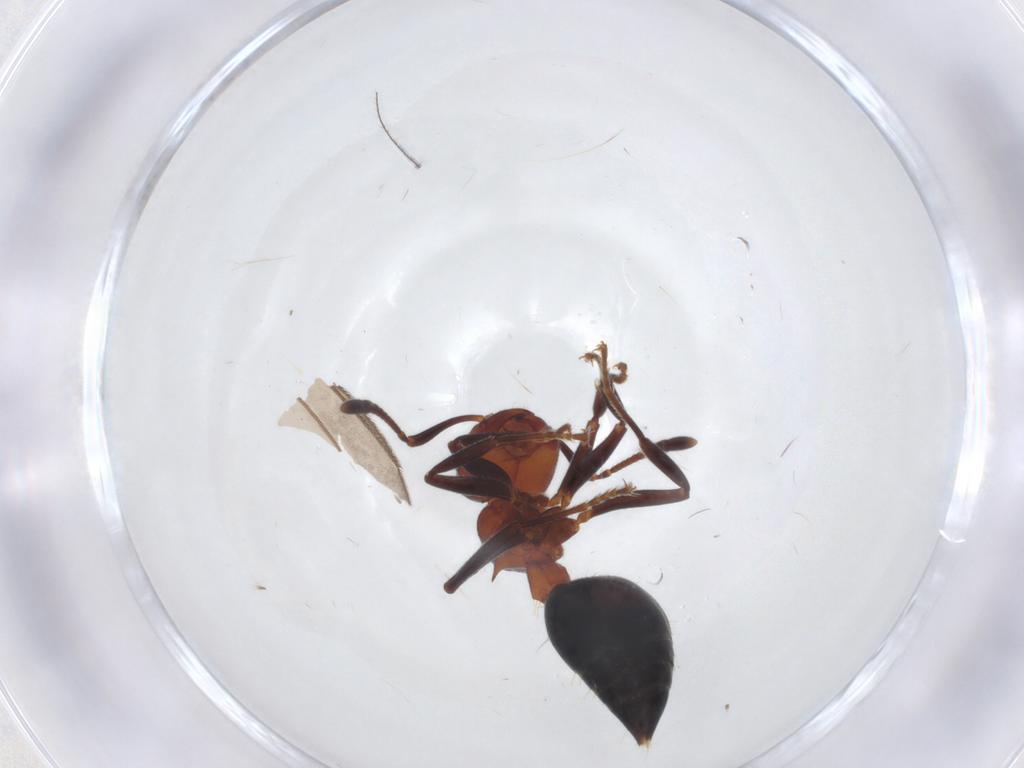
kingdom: Animalia
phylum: Arthropoda
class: Insecta
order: Hymenoptera
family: Formicidae
